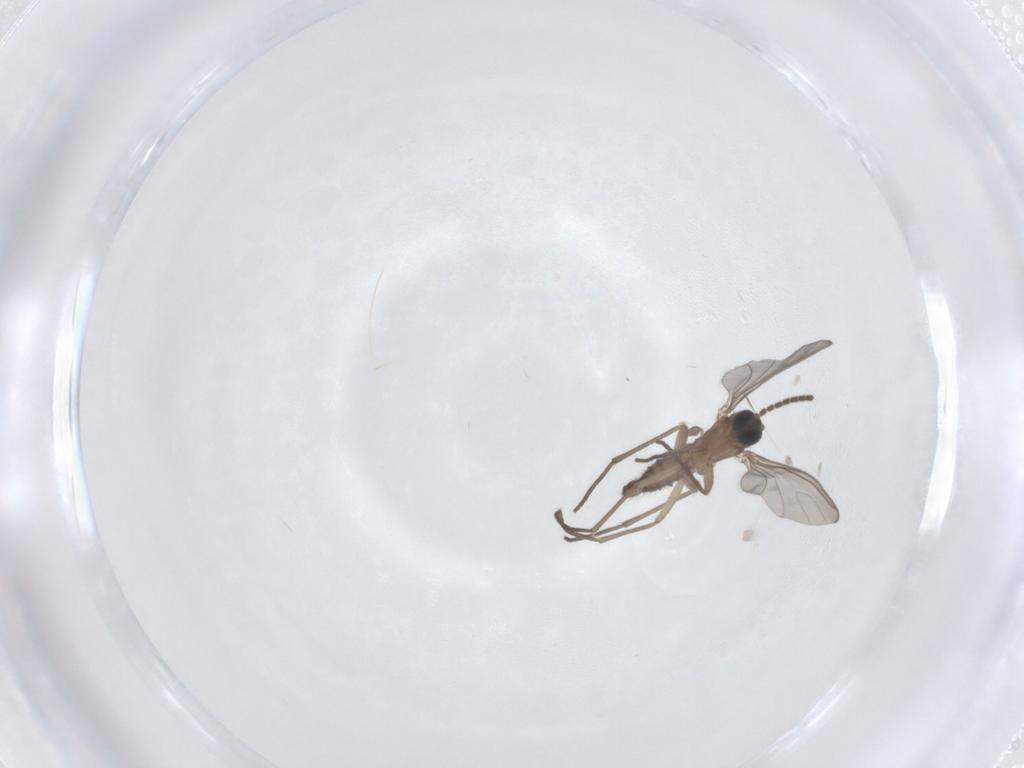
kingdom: Animalia
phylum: Arthropoda
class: Insecta
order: Diptera
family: Sciaridae
